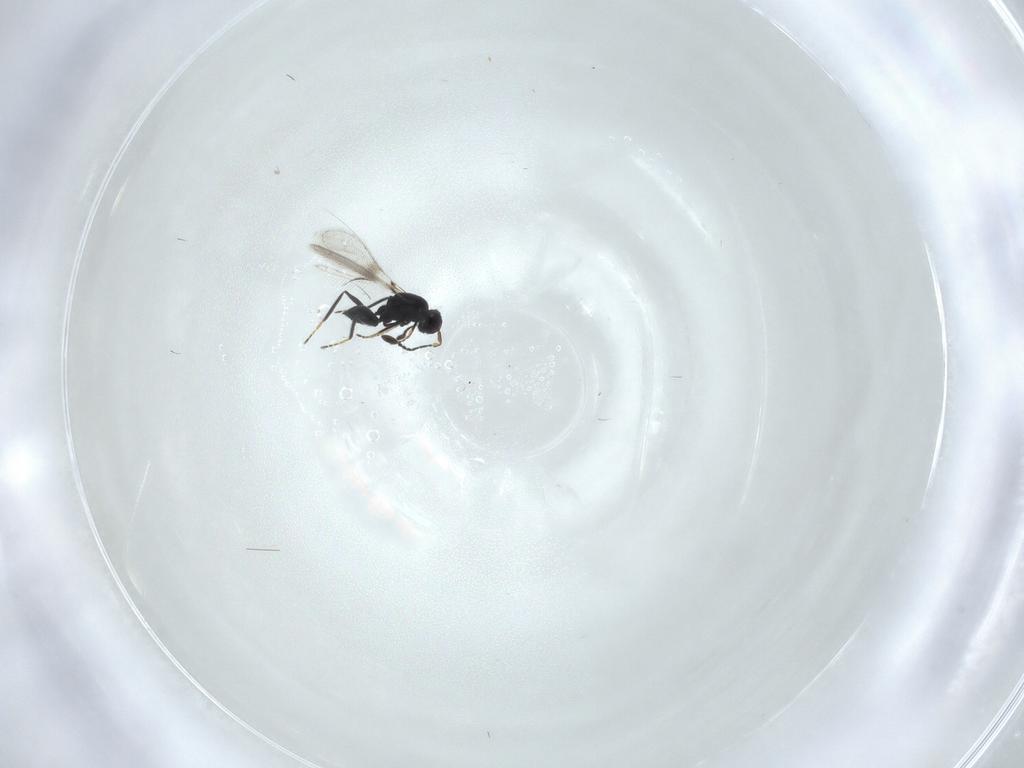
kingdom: Animalia
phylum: Arthropoda
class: Insecta
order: Hymenoptera
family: Mymaridae
